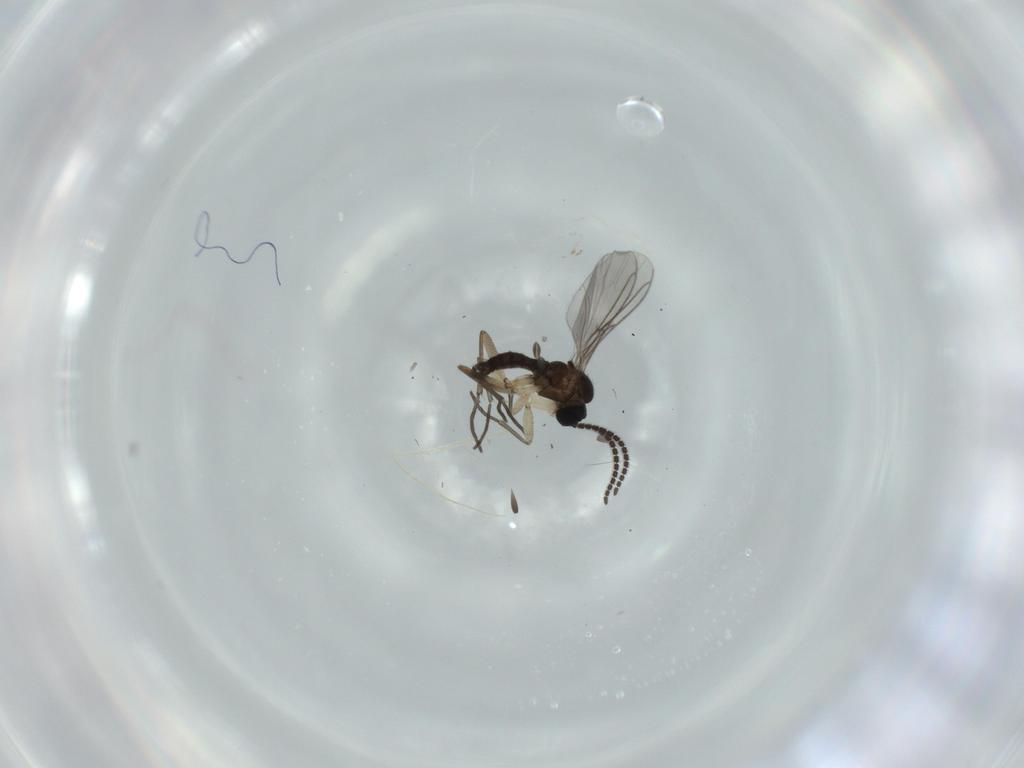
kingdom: Animalia
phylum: Arthropoda
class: Insecta
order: Diptera
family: Sciaridae
